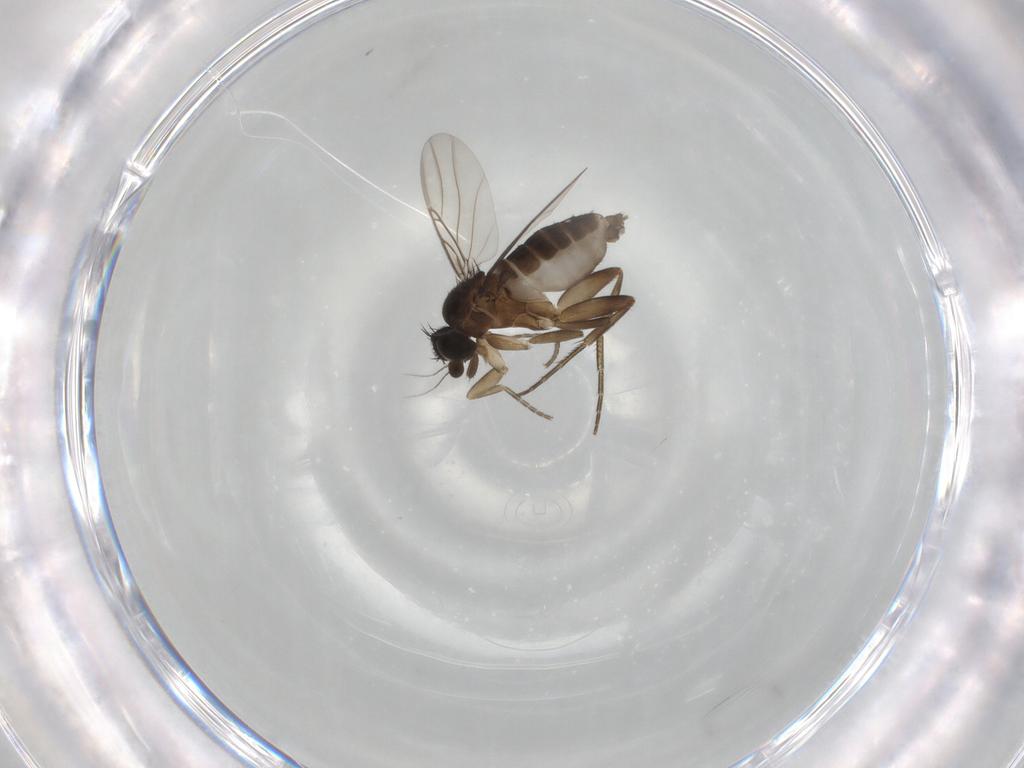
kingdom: Animalia
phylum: Arthropoda
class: Insecta
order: Diptera
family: Phoridae
